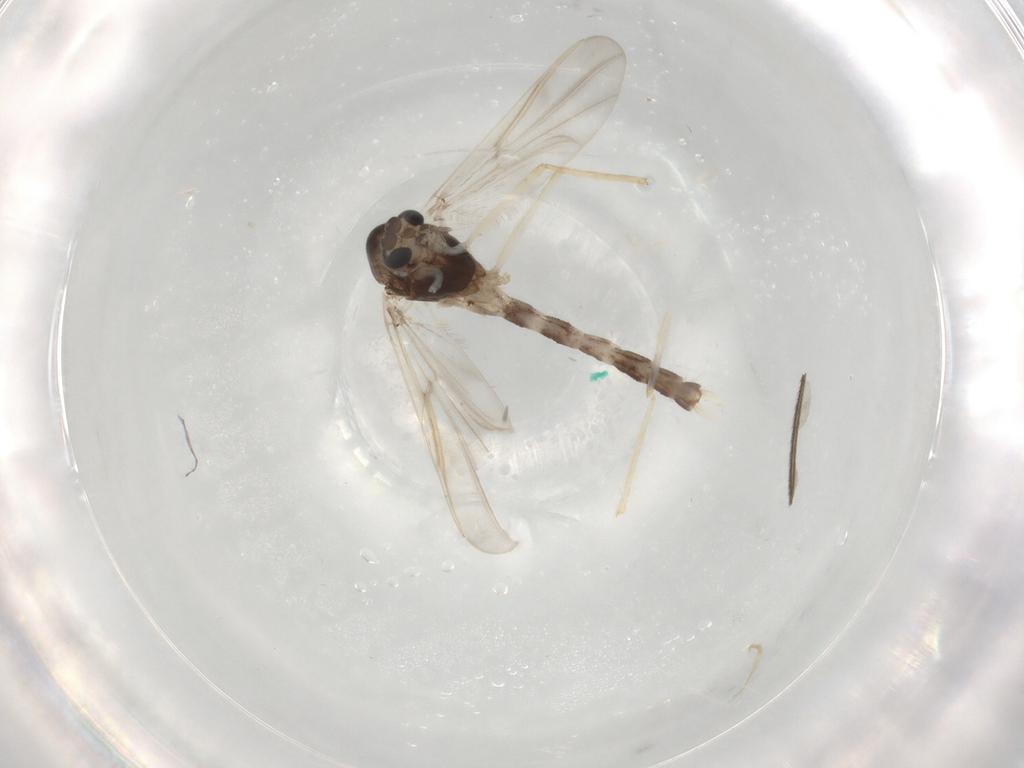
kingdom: Animalia
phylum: Arthropoda
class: Insecta
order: Diptera
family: Chironomidae
